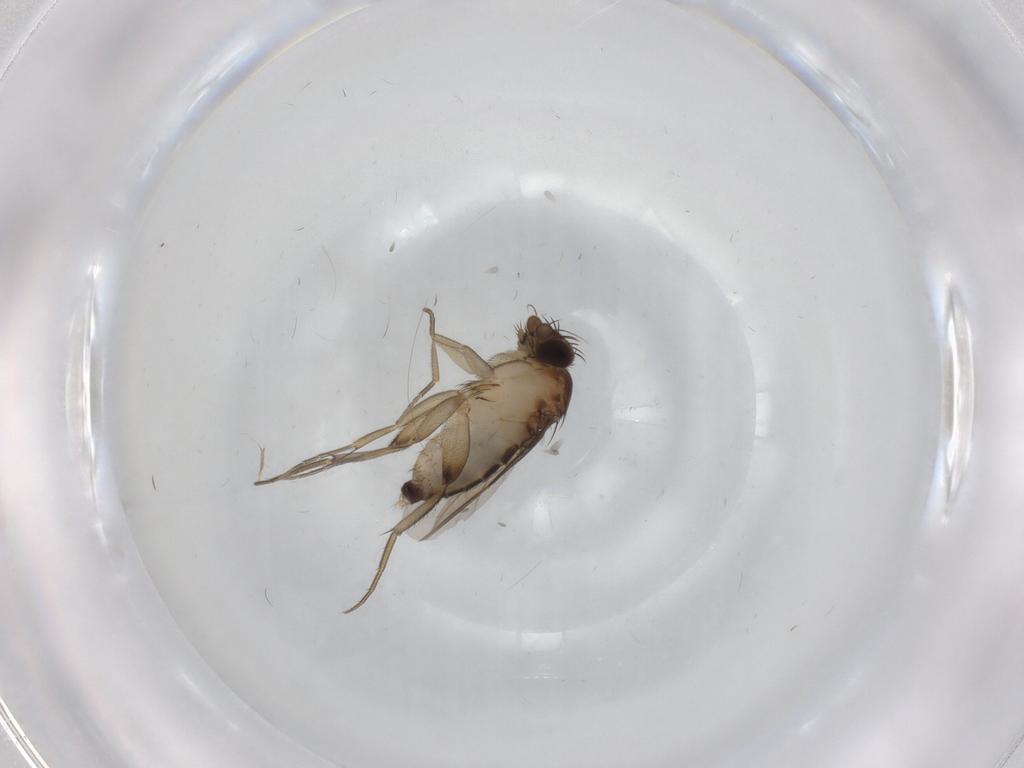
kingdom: Animalia
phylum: Arthropoda
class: Insecta
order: Diptera
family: Phoridae
